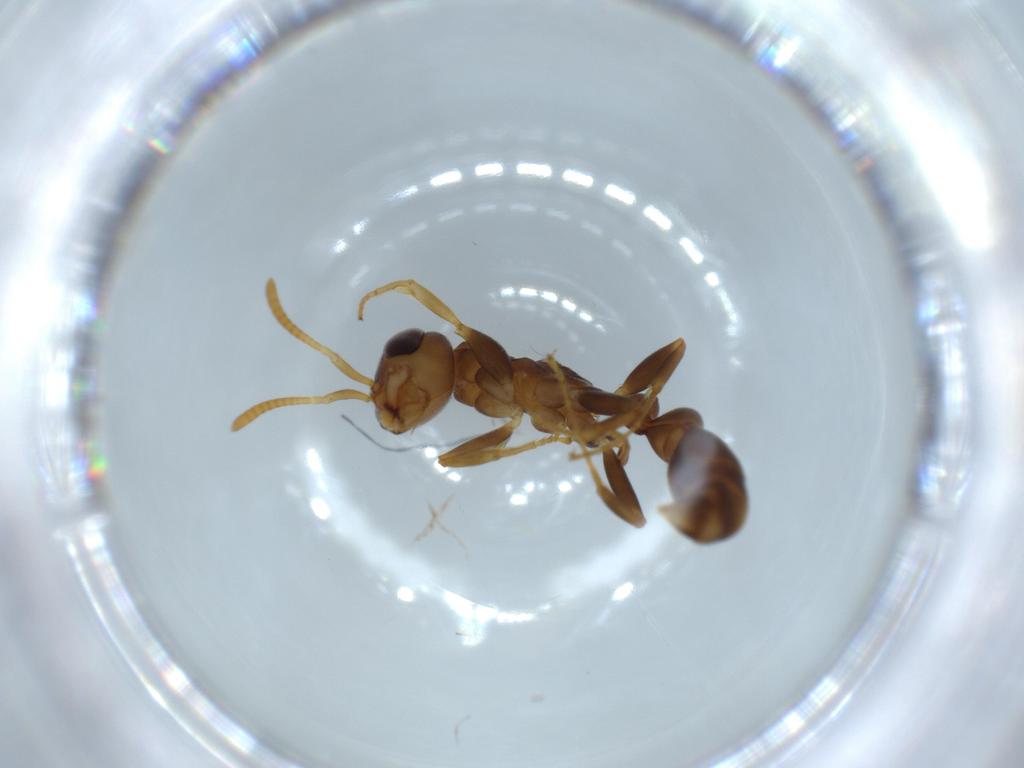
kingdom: Animalia
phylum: Arthropoda
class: Insecta
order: Hymenoptera
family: Formicidae
